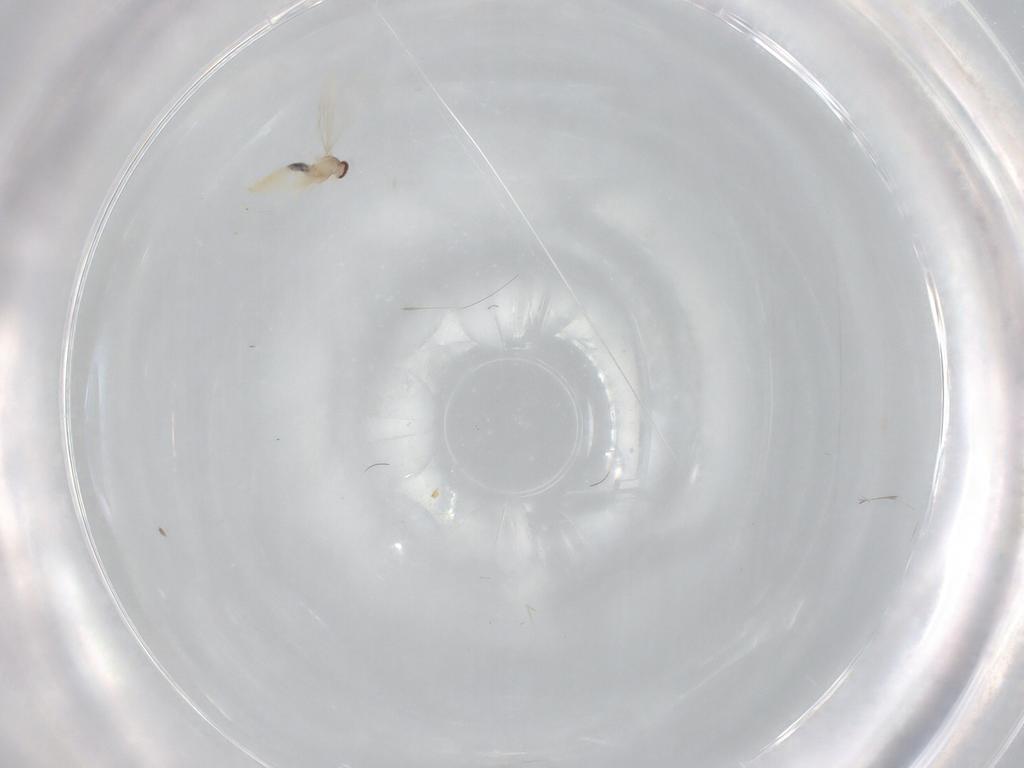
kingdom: Animalia
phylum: Arthropoda
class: Insecta
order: Diptera
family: Cecidomyiidae
